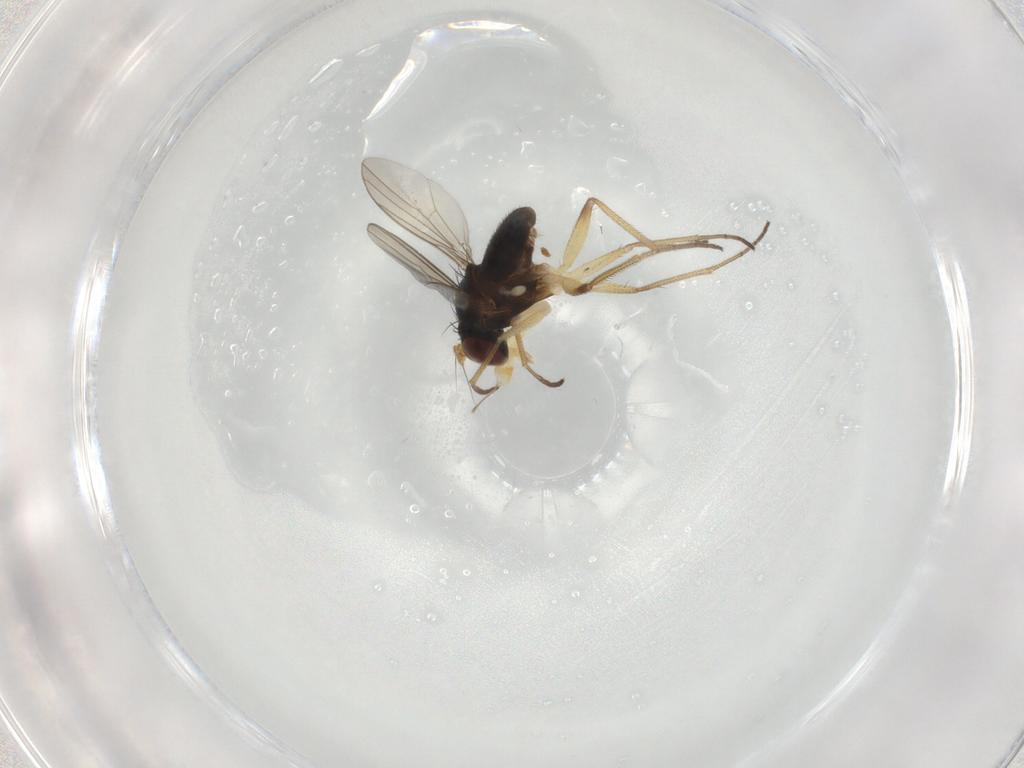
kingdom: Animalia
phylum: Arthropoda
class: Insecta
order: Diptera
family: Dolichopodidae
